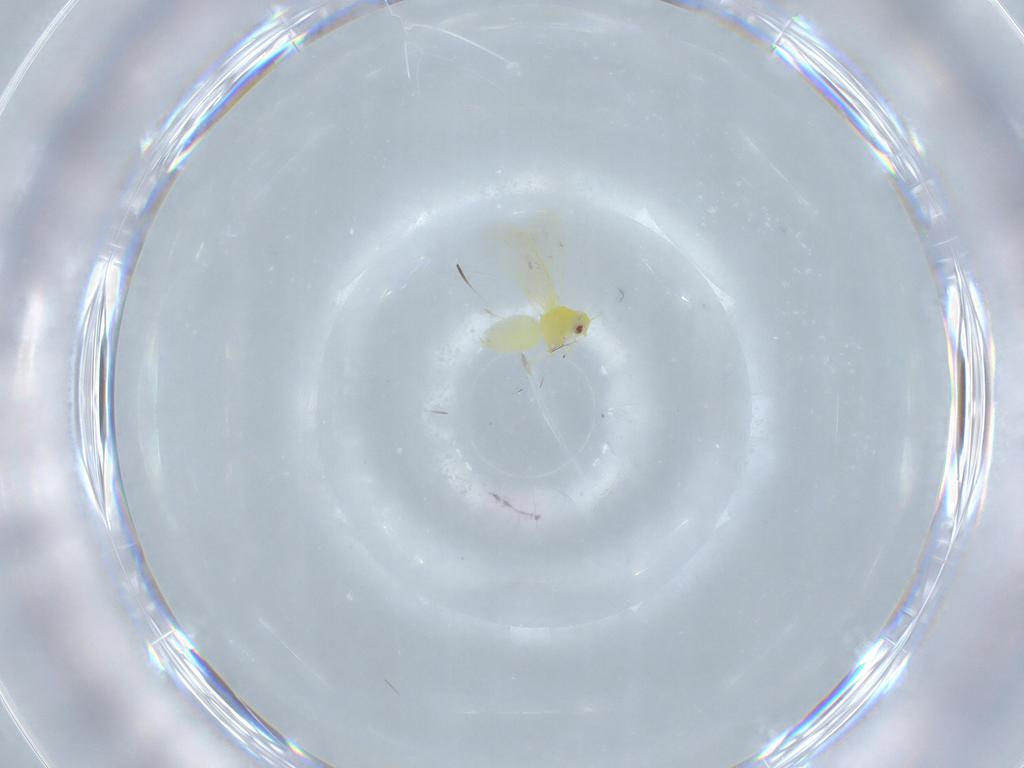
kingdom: Animalia
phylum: Arthropoda
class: Insecta
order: Hemiptera
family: Aleyrodidae
